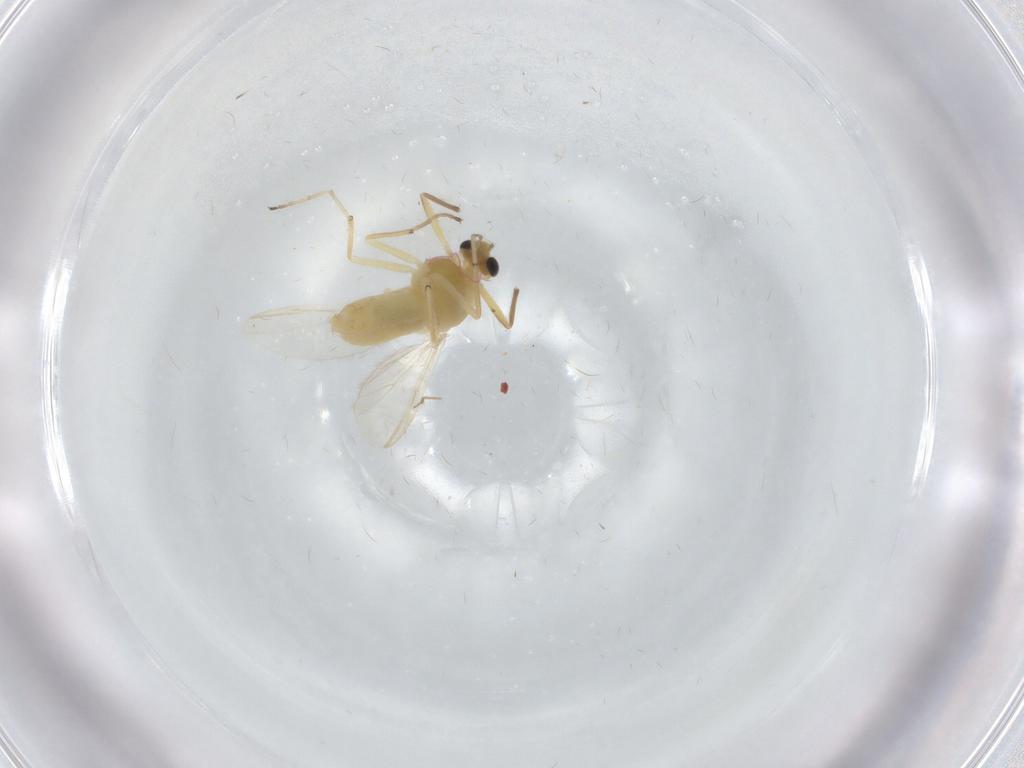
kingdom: Animalia
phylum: Arthropoda
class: Insecta
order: Diptera
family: Chironomidae
